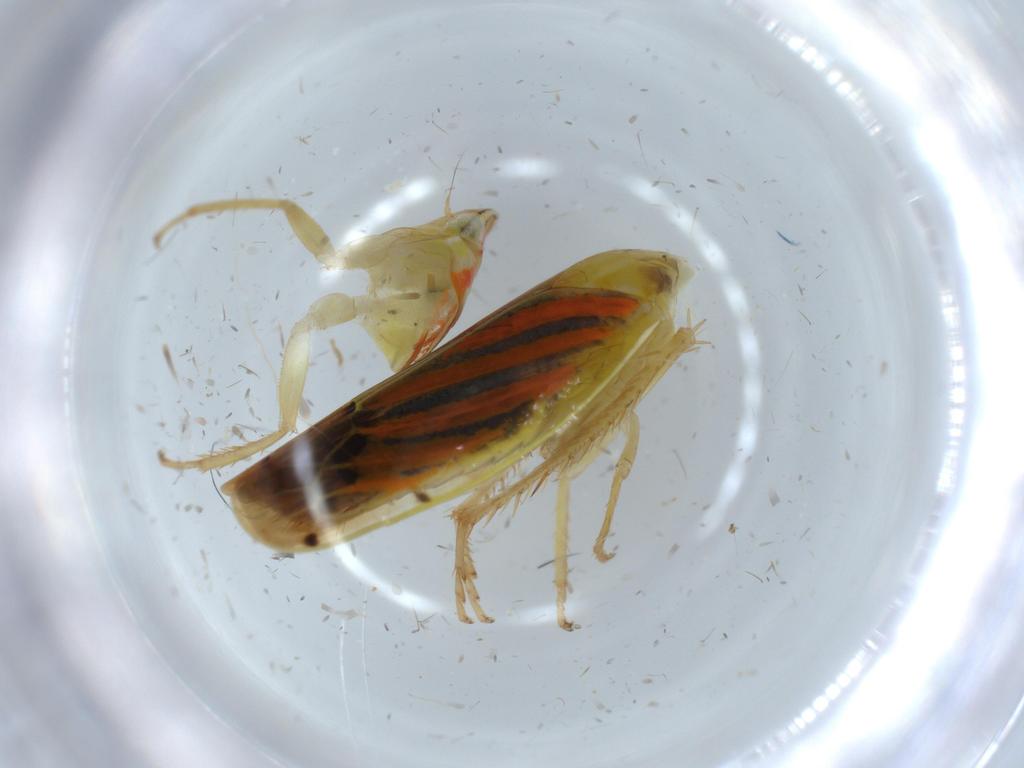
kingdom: Animalia
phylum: Arthropoda
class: Insecta
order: Hemiptera
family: Cicadellidae
